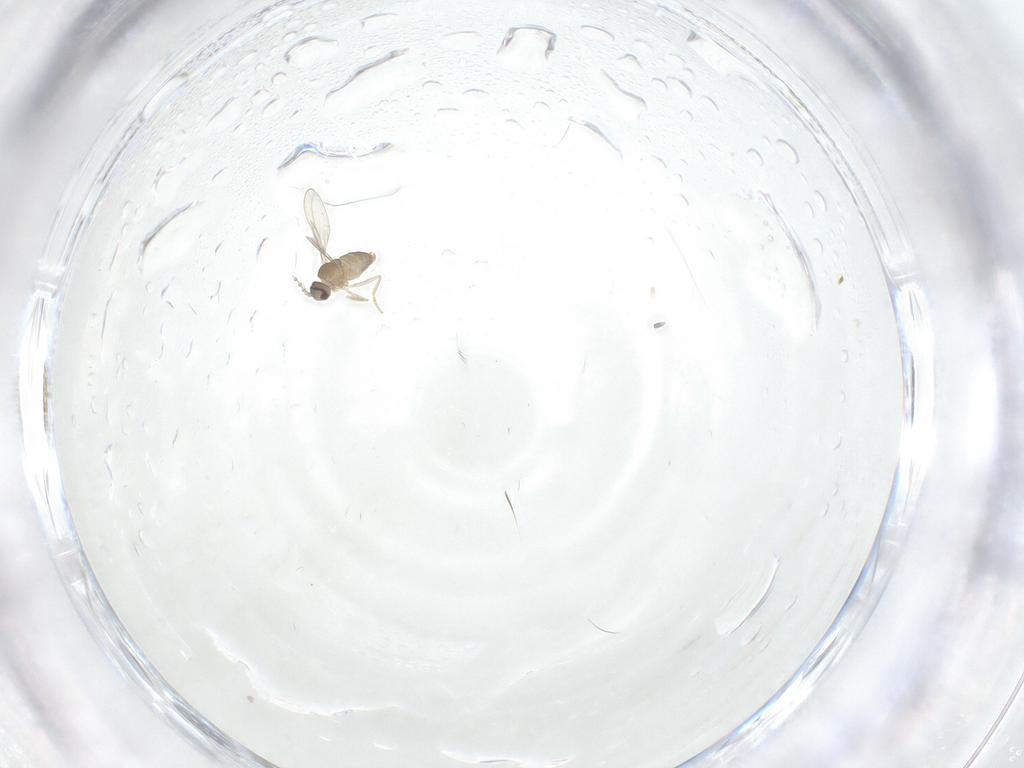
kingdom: Animalia
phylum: Arthropoda
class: Insecta
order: Diptera
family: Cecidomyiidae
